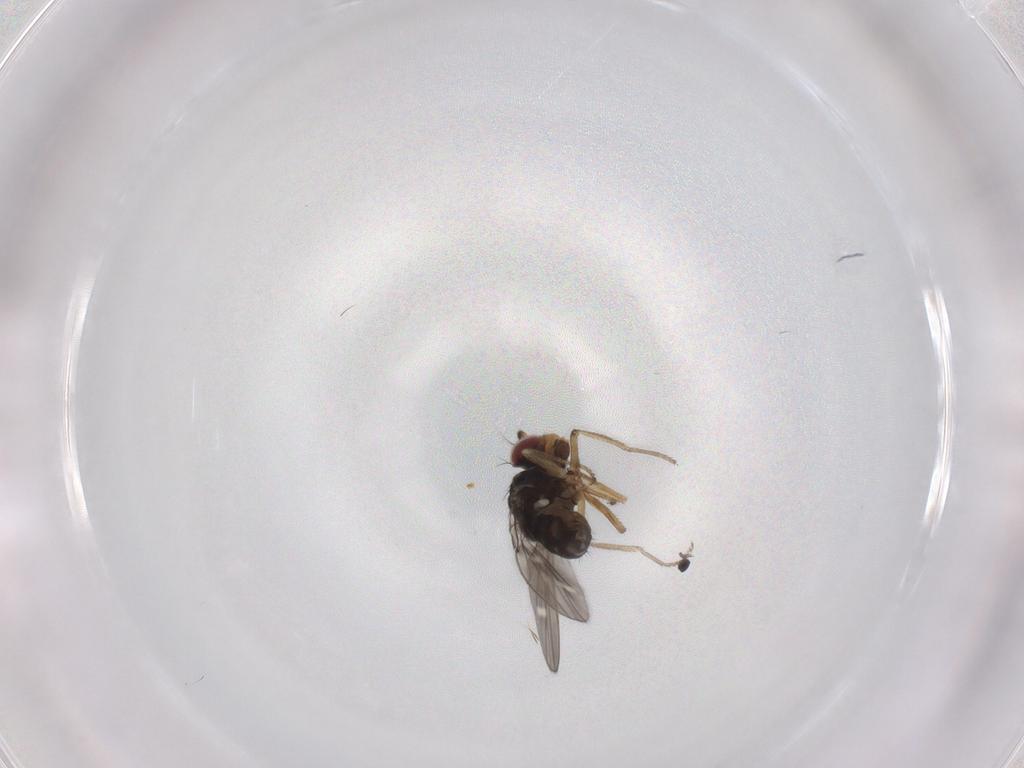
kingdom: Animalia
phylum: Arthropoda
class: Insecta
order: Diptera
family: Ephydridae
